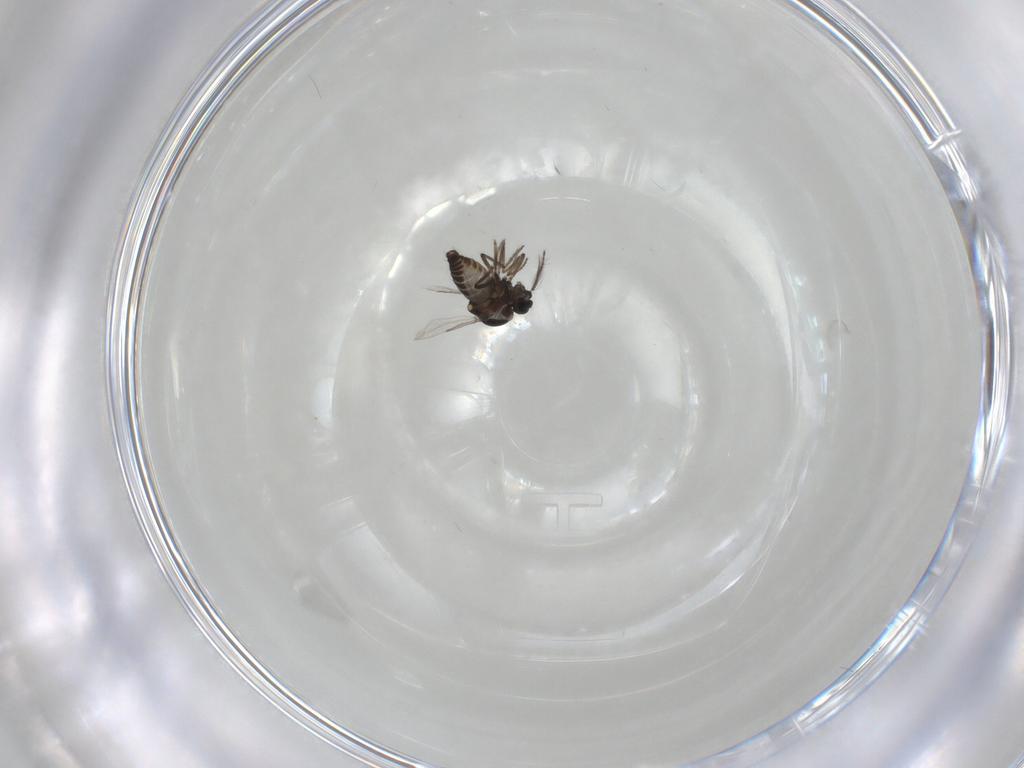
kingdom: Animalia
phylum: Arthropoda
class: Insecta
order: Diptera
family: Ceratopogonidae
